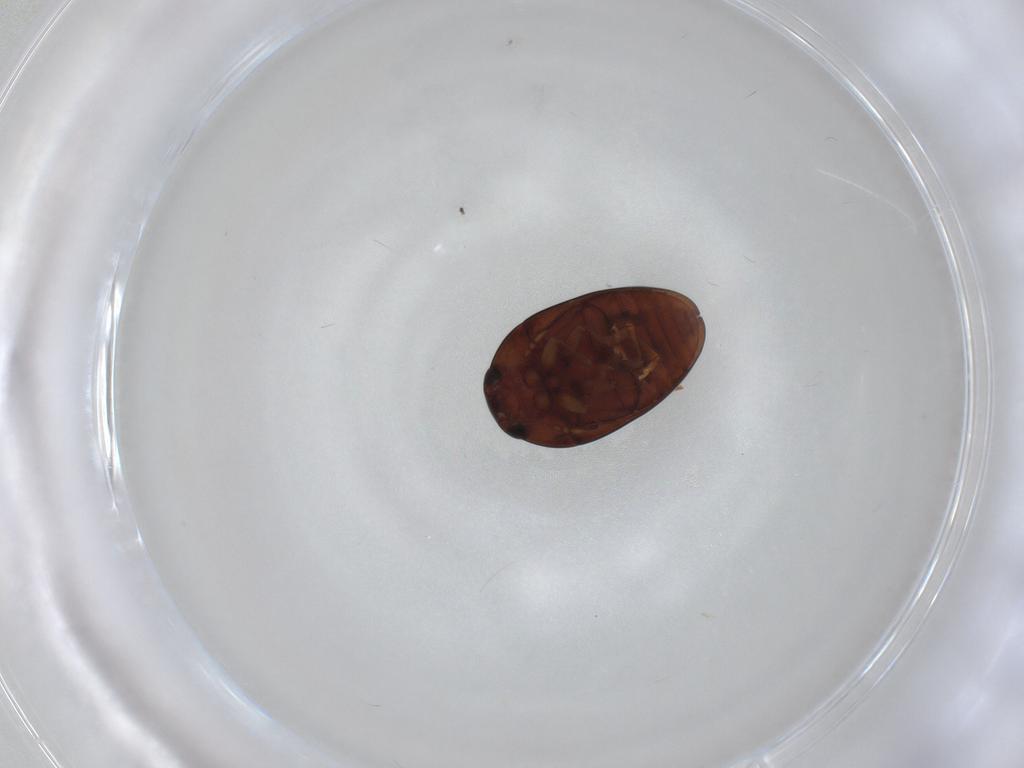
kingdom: Animalia
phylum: Arthropoda
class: Insecta
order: Coleoptera
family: Phalacridae
